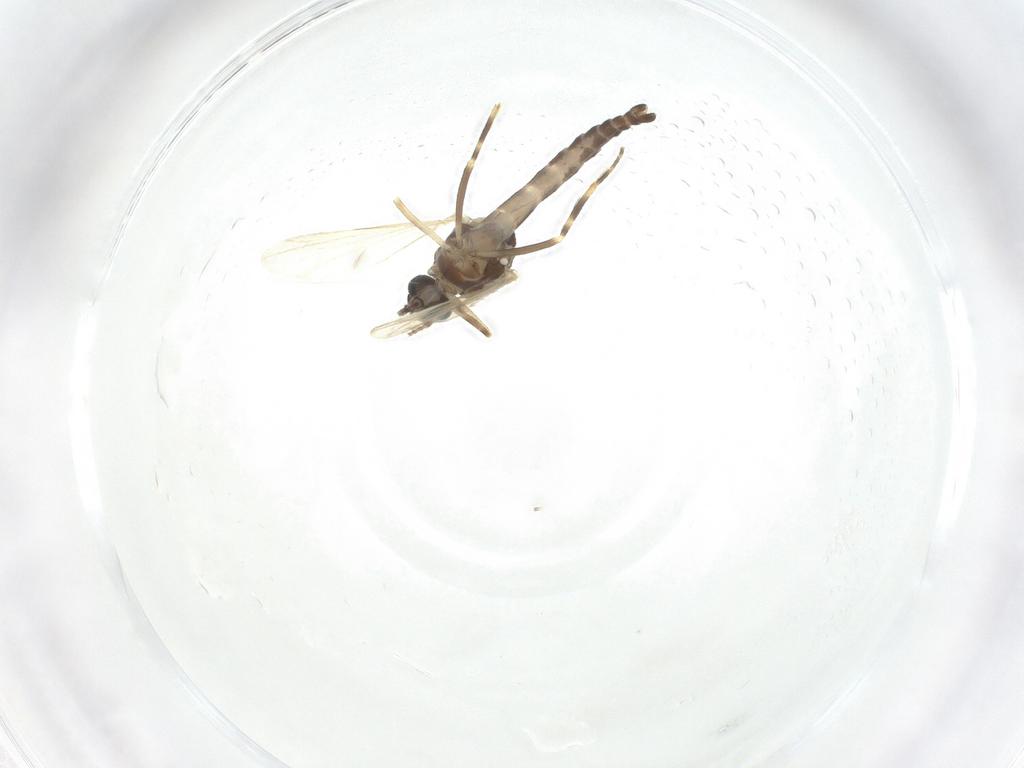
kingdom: Animalia
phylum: Arthropoda
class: Insecta
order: Diptera
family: Ceratopogonidae
